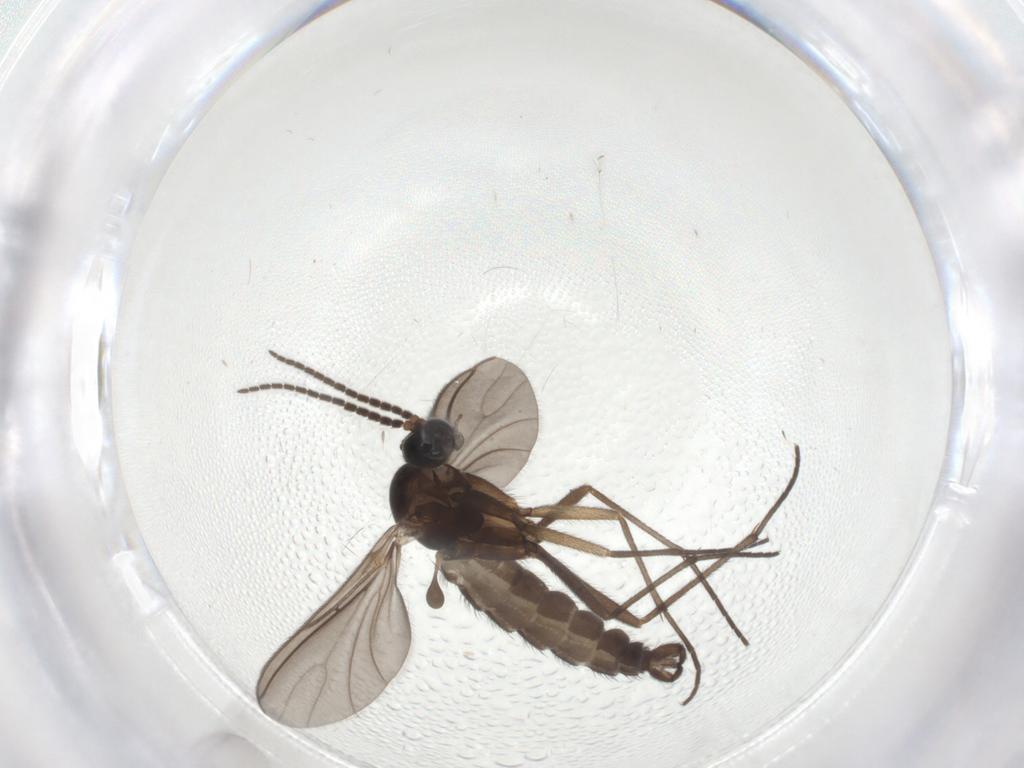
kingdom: Animalia
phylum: Arthropoda
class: Insecta
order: Diptera
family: Sciaridae
